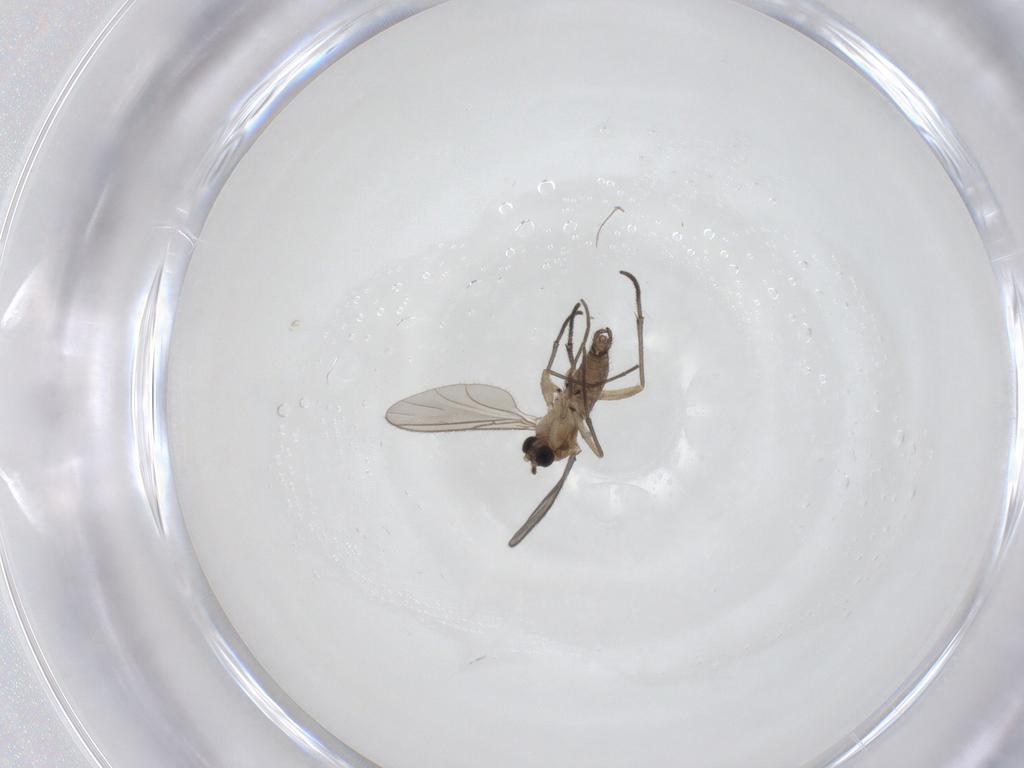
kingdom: Animalia
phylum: Arthropoda
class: Insecta
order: Diptera
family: Sciaridae
